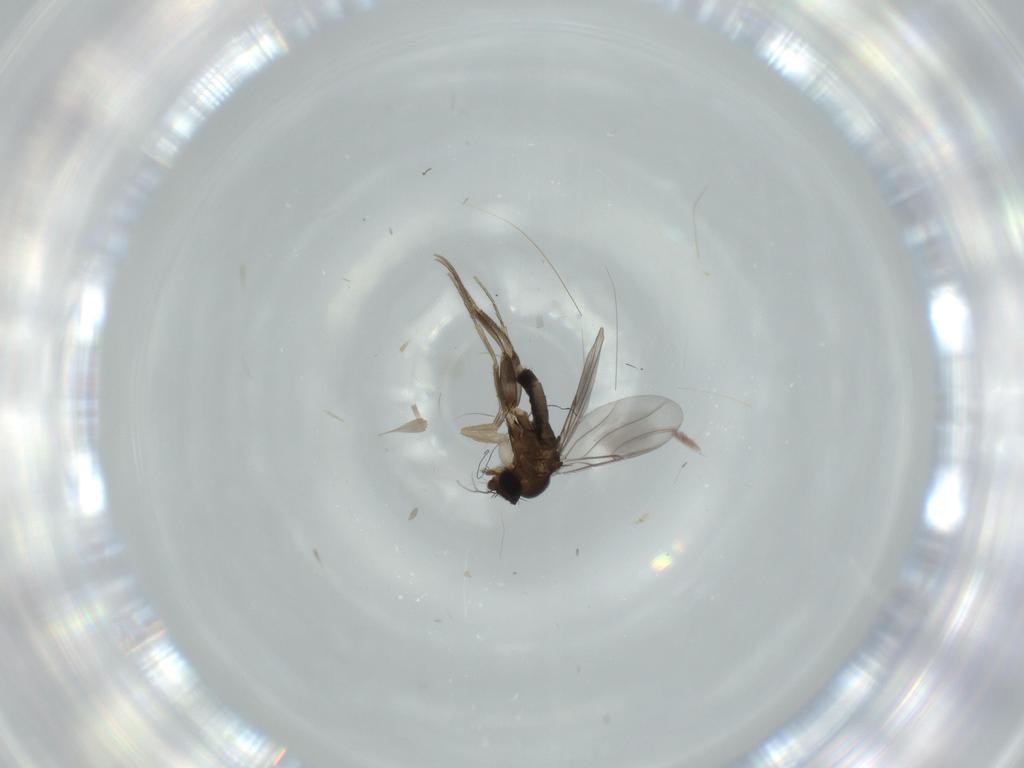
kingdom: Animalia
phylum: Arthropoda
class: Insecta
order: Diptera
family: Phoridae
